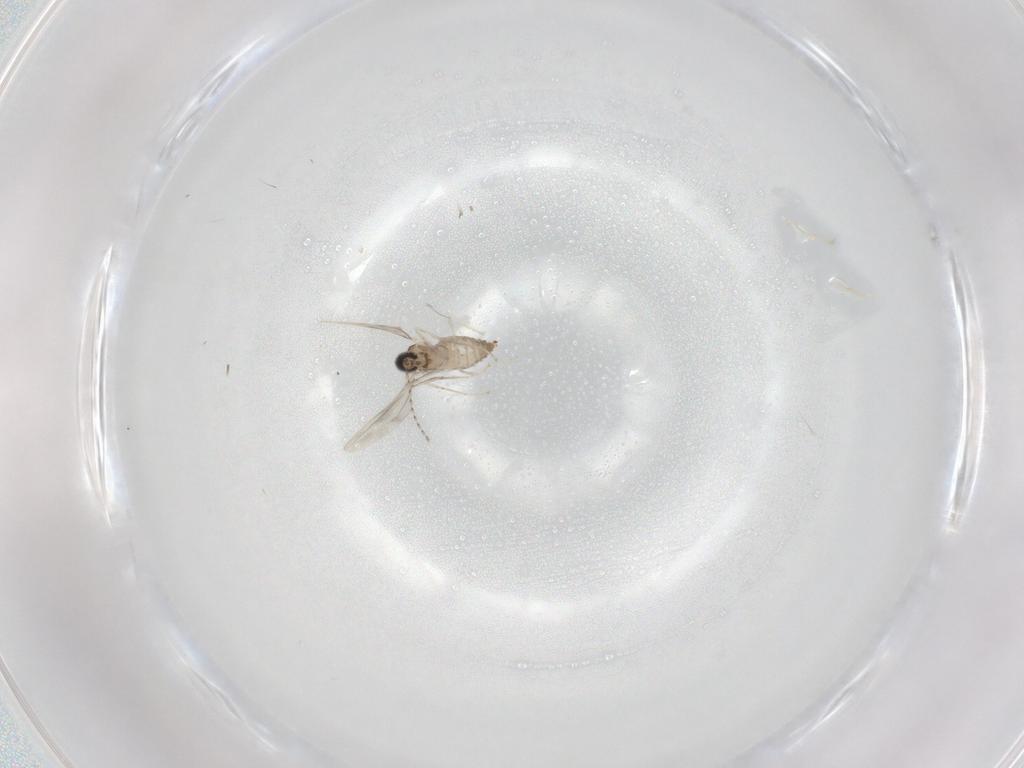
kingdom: Animalia
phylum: Arthropoda
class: Insecta
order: Diptera
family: Cecidomyiidae
